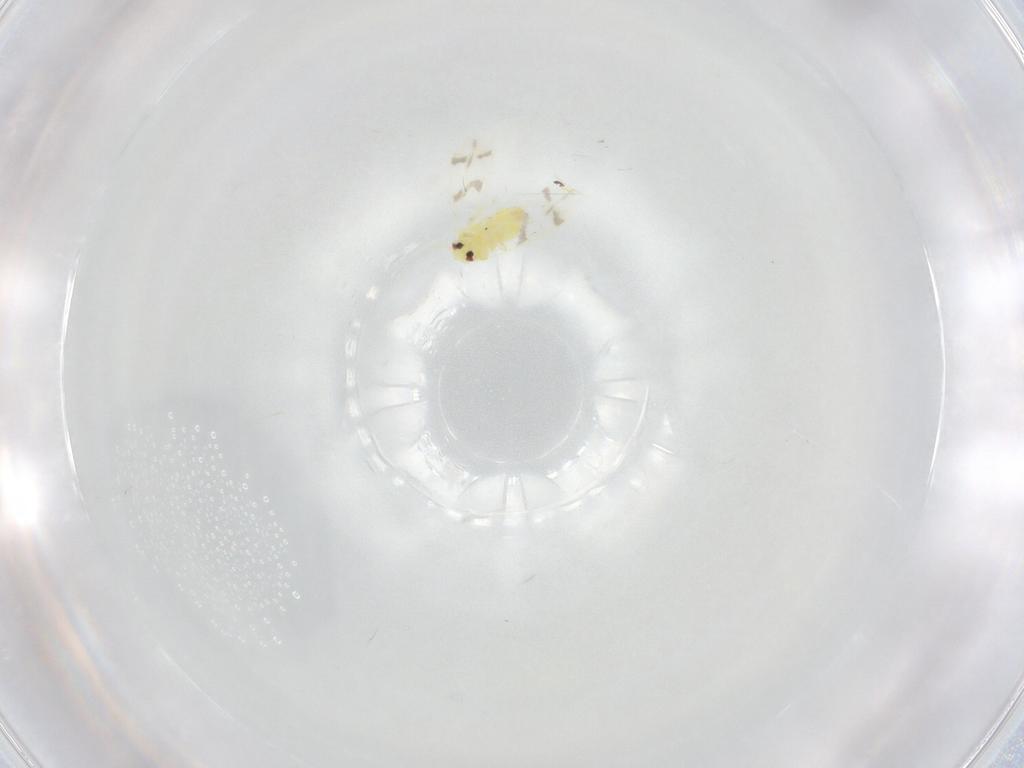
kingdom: Animalia
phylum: Arthropoda
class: Insecta
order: Hemiptera
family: Aleyrodidae
